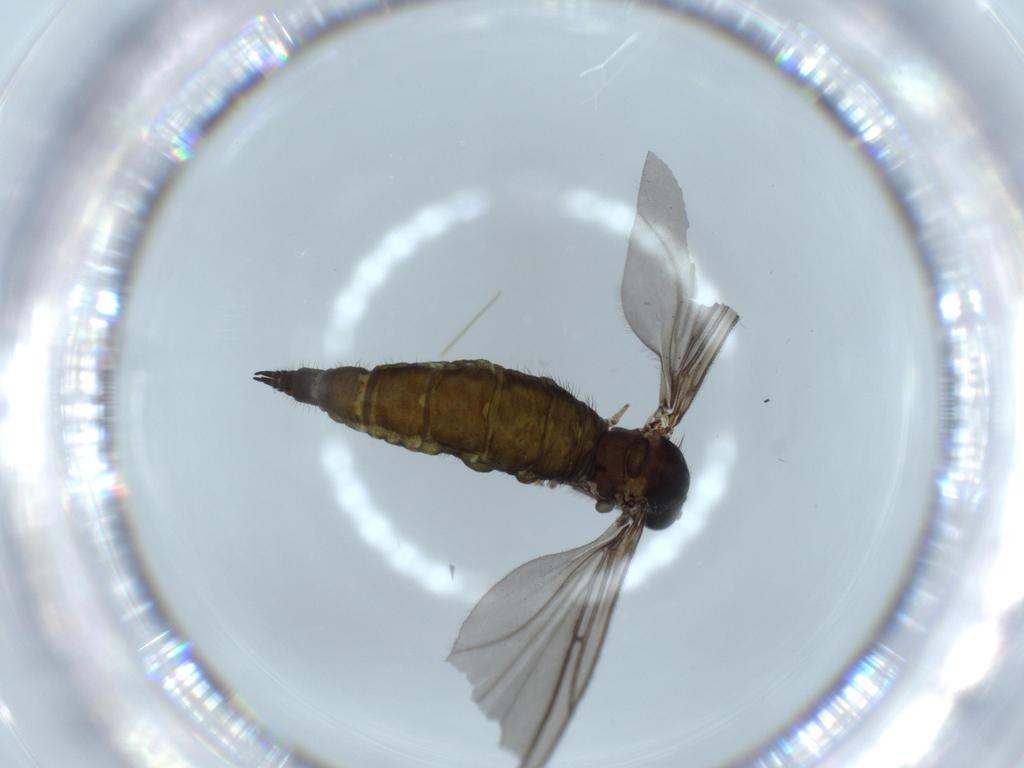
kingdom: Animalia
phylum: Arthropoda
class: Insecta
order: Diptera
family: Sciaridae
